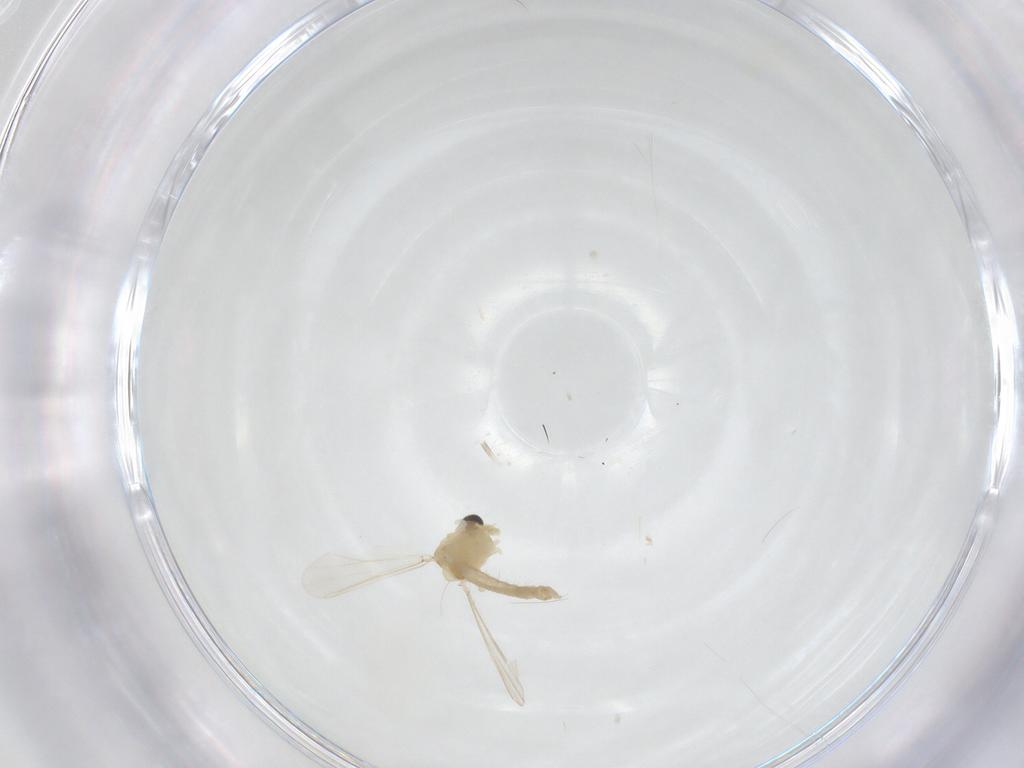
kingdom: Animalia
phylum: Arthropoda
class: Insecta
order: Diptera
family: Chironomidae
